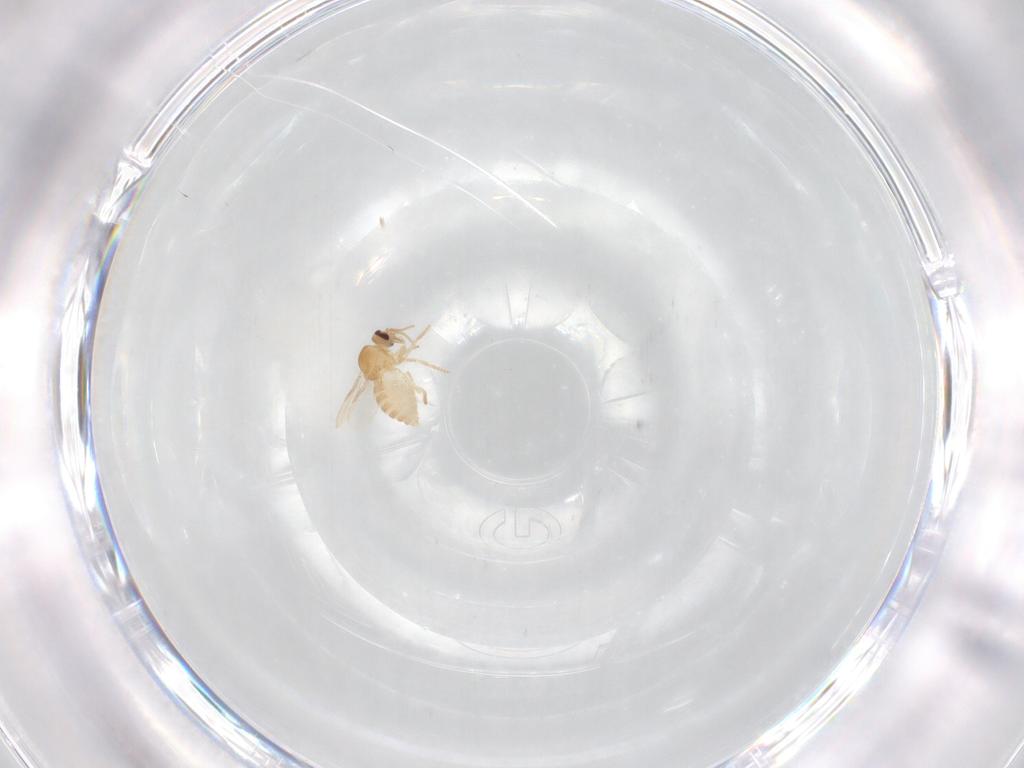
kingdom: Animalia
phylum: Arthropoda
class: Insecta
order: Diptera
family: Ceratopogonidae
